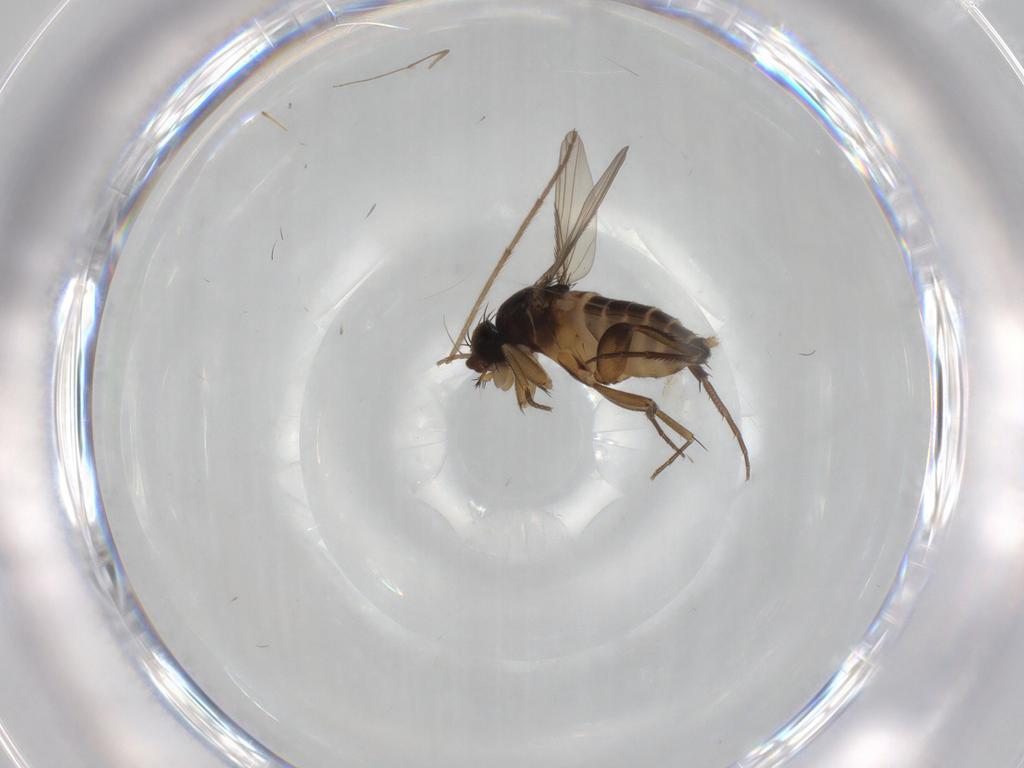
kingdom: Animalia
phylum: Arthropoda
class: Insecta
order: Diptera
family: Phoridae
